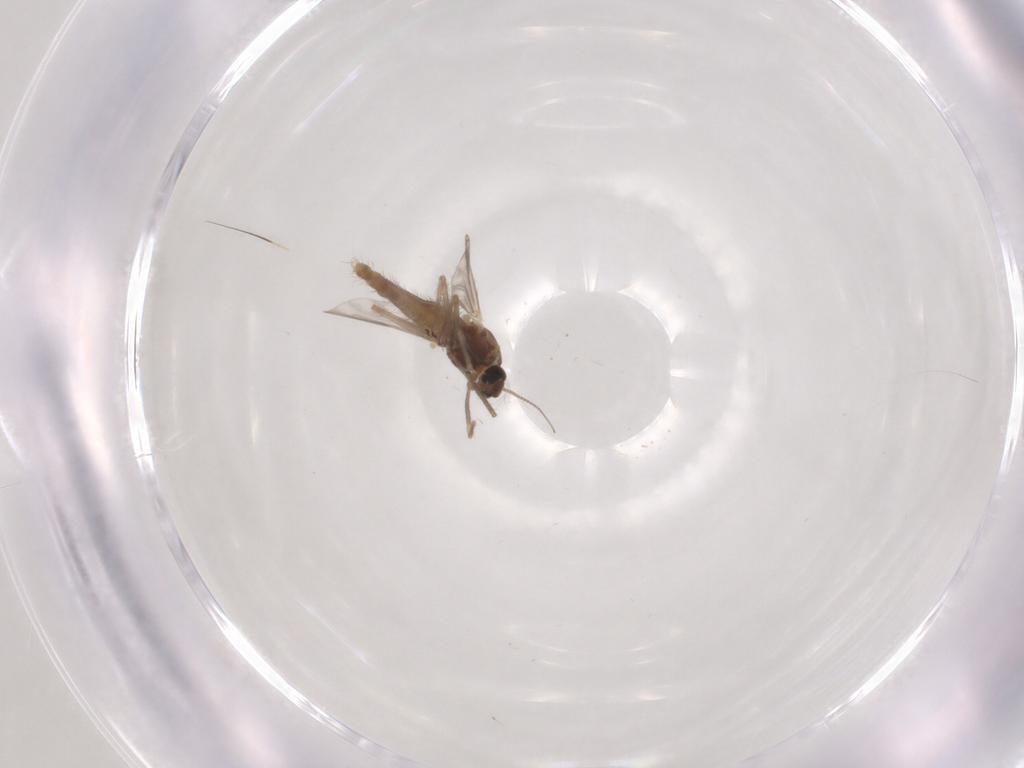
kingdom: Animalia
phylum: Arthropoda
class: Insecta
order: Diptera
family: Chironomidae
